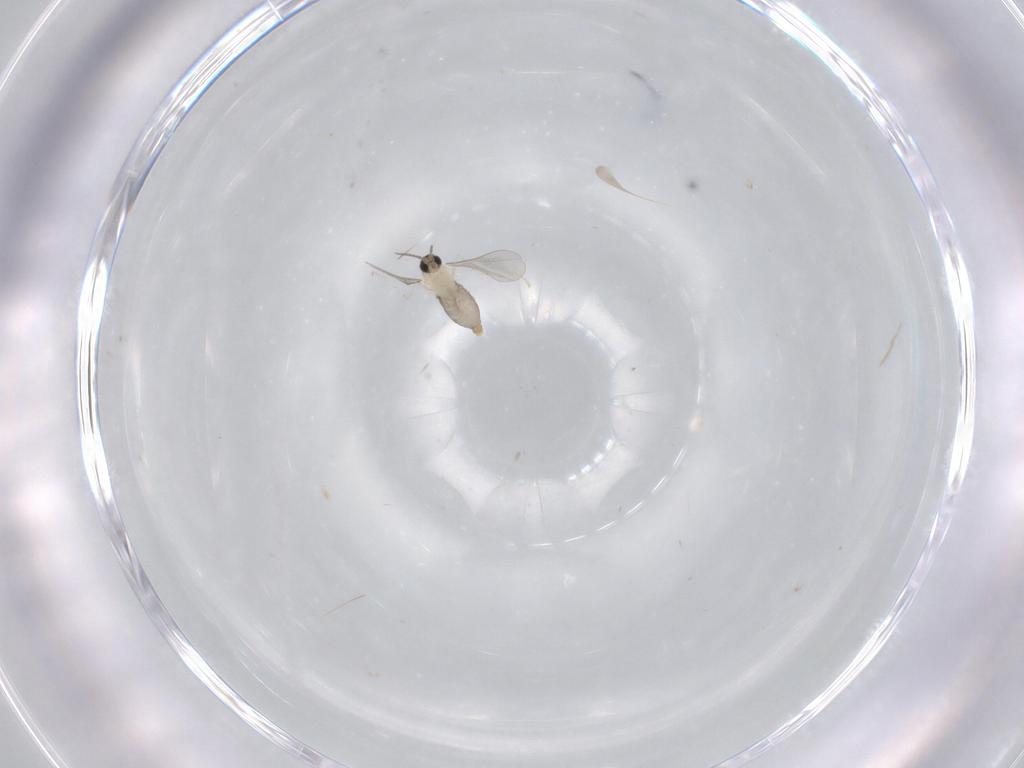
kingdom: Animalia
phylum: Arthropoda
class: Insecta
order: Diptera
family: Cecidomyiidae
